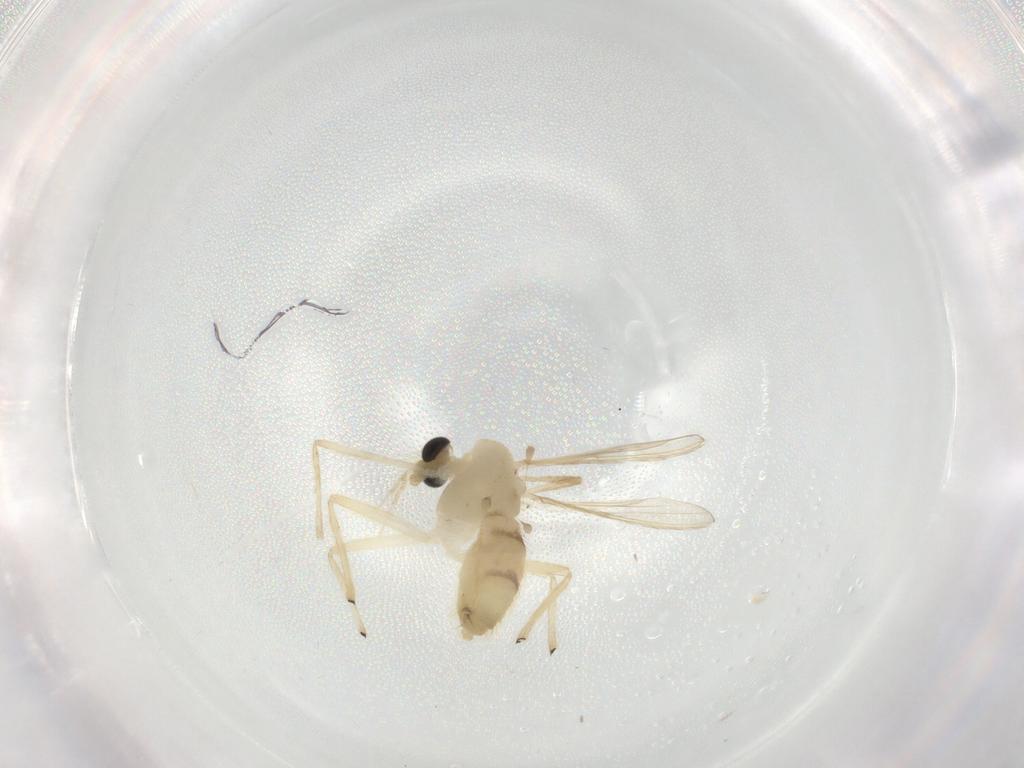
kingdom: Animalia
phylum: Arthropoda
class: Insecta
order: Diptera
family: Chironomidae
